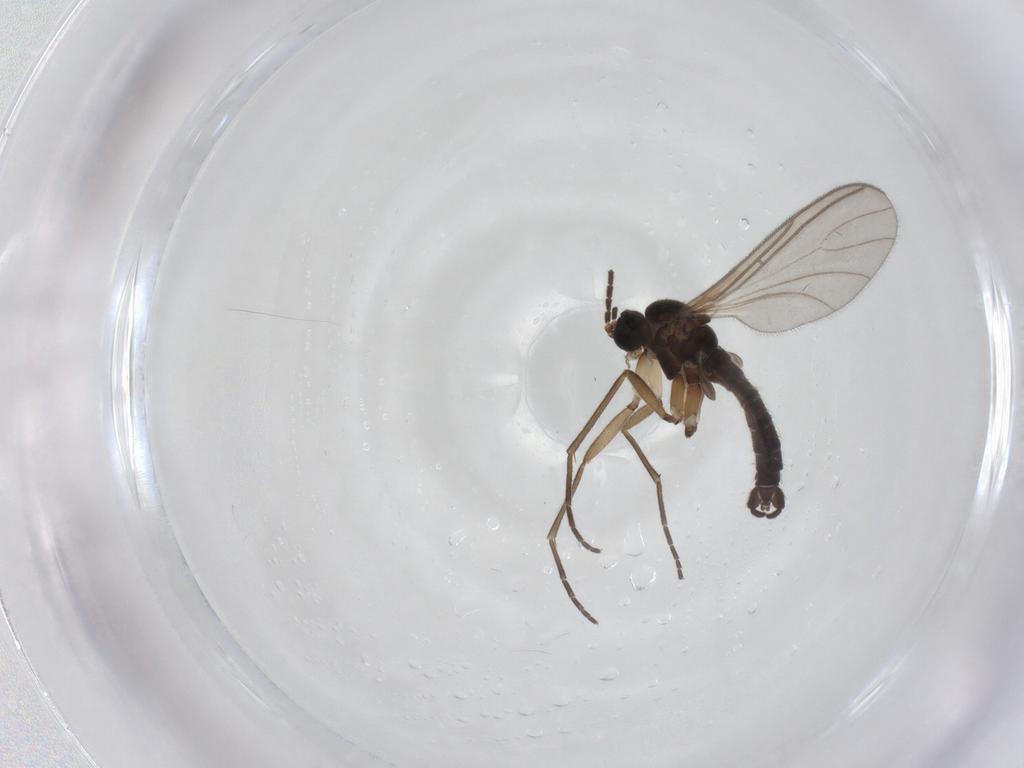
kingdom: Animalia
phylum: Arthropoda
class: Insecta
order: Diptera
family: Sciaridae
